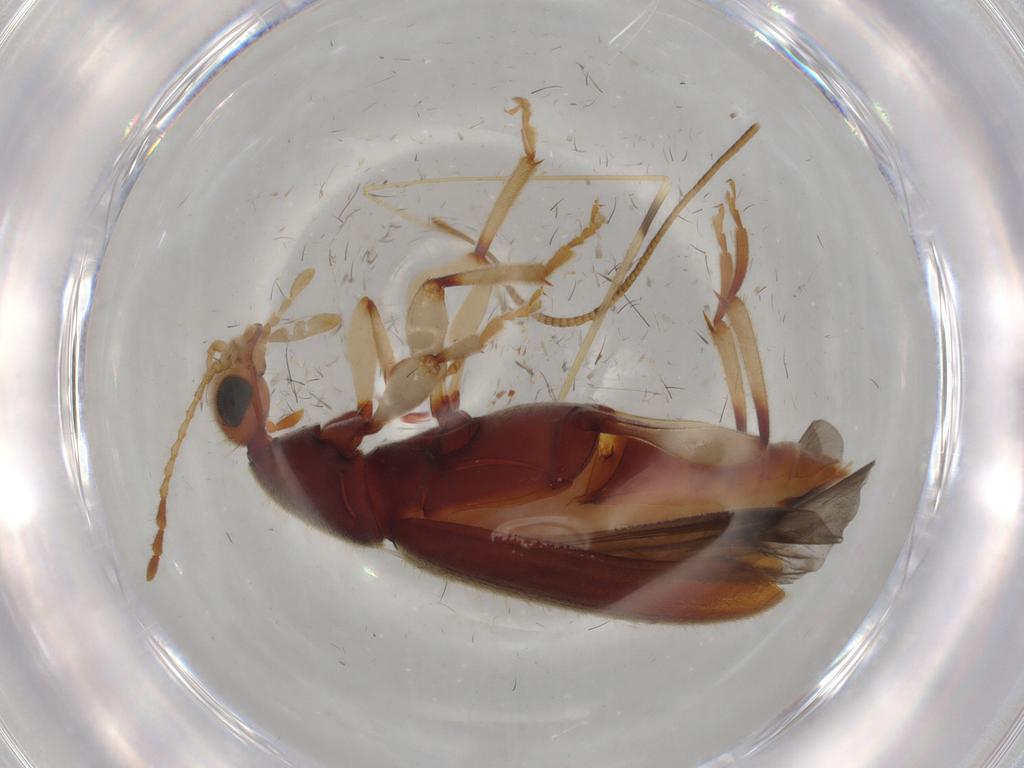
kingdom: Animalia
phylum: Arthropoda
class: Insecta
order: Coleoptera
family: Anthicidae
